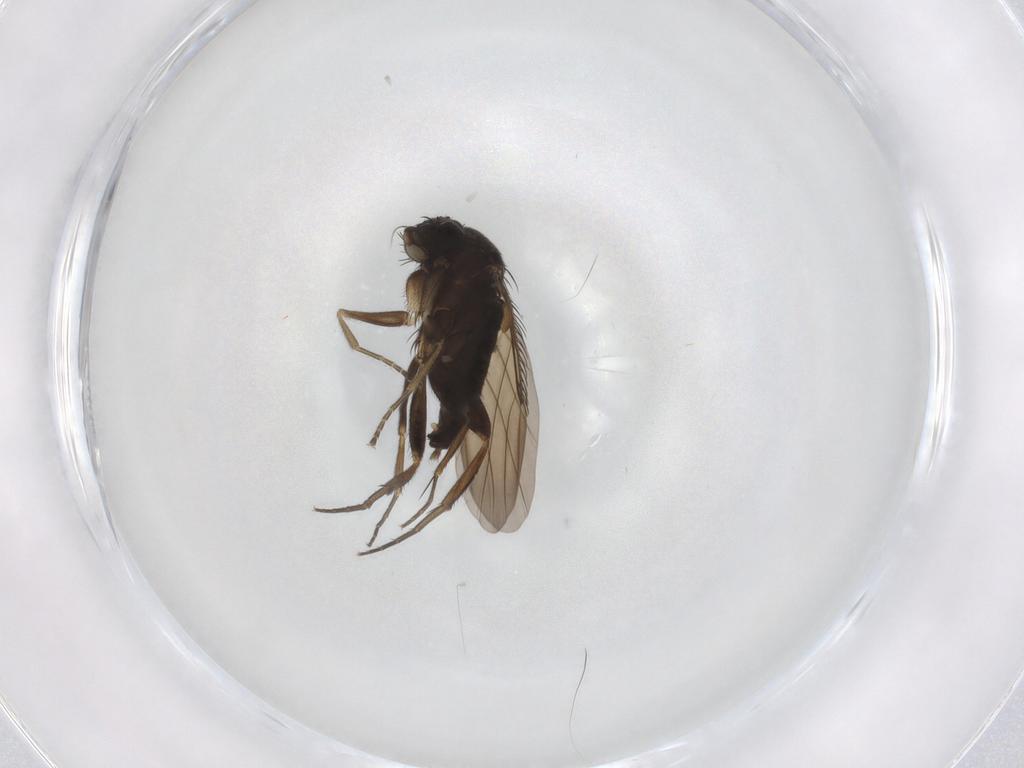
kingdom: Animalia
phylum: Arthropoda
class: Insecta
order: Diptera
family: Phoridae
